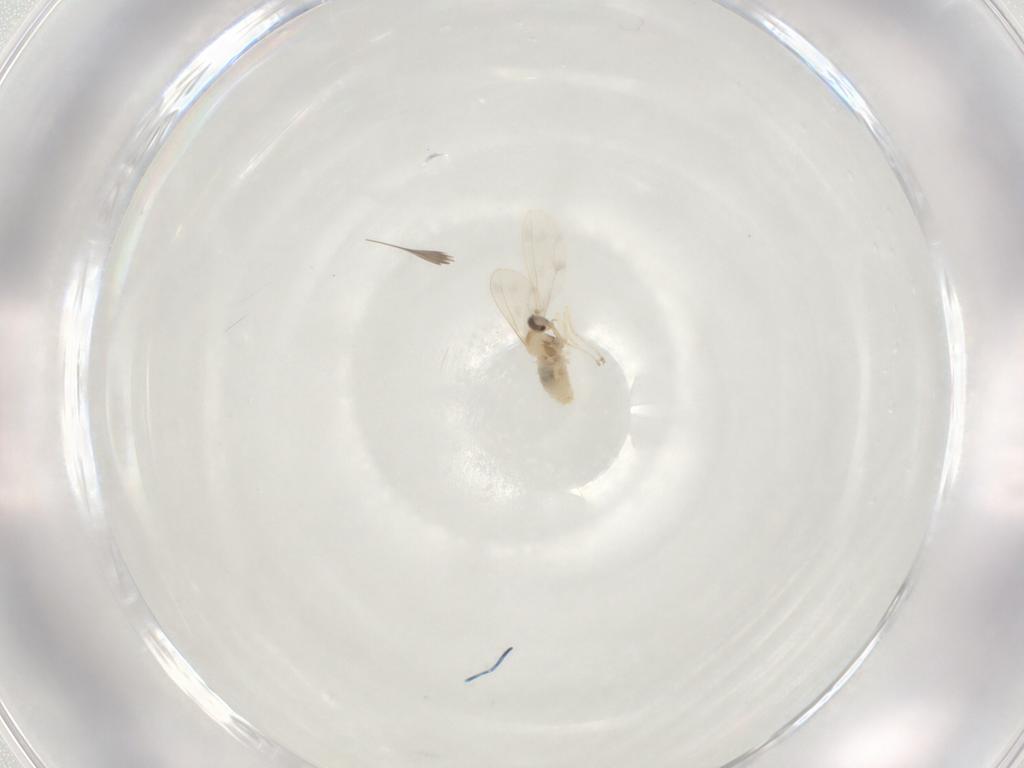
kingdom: Animalia
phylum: Arthropoda
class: Insecta
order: Diptera
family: Cecidomyiidae
